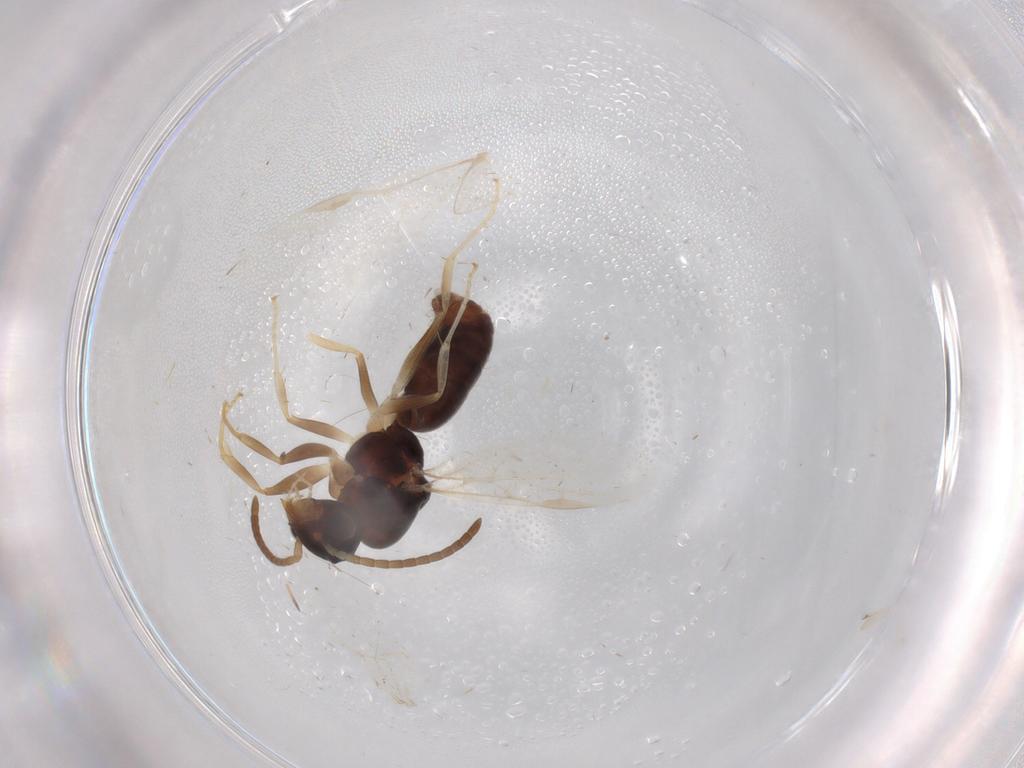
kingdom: Animalia
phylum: Arthropoda
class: Insecta
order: Hymenoptera
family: Formicidae
